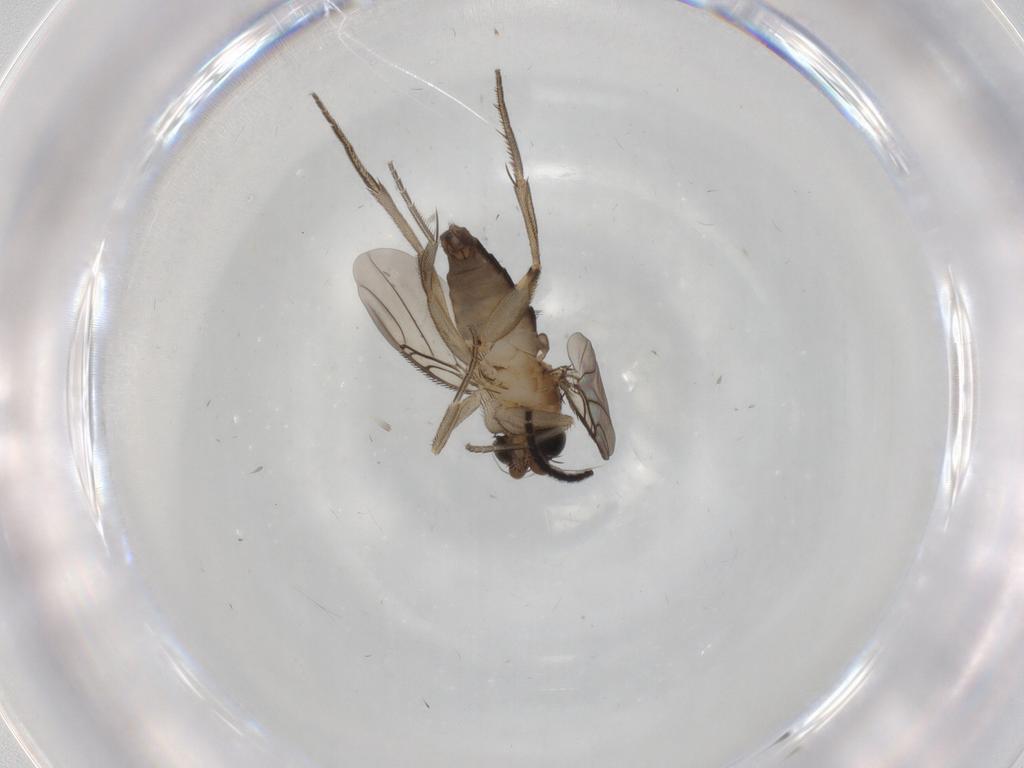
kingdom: Animalia
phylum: Arthropoda
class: Insecta
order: Diptera
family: Phoridae
